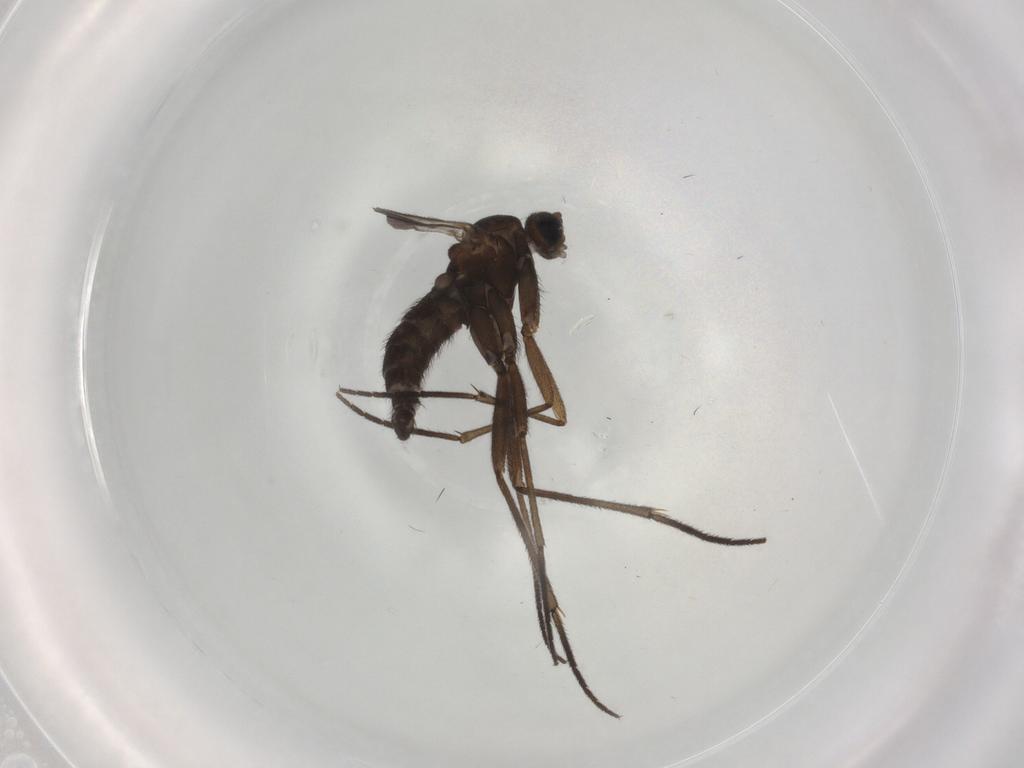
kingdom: Animalia
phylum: Arthropoda
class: Insecta
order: Diptera
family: Sciaridae
